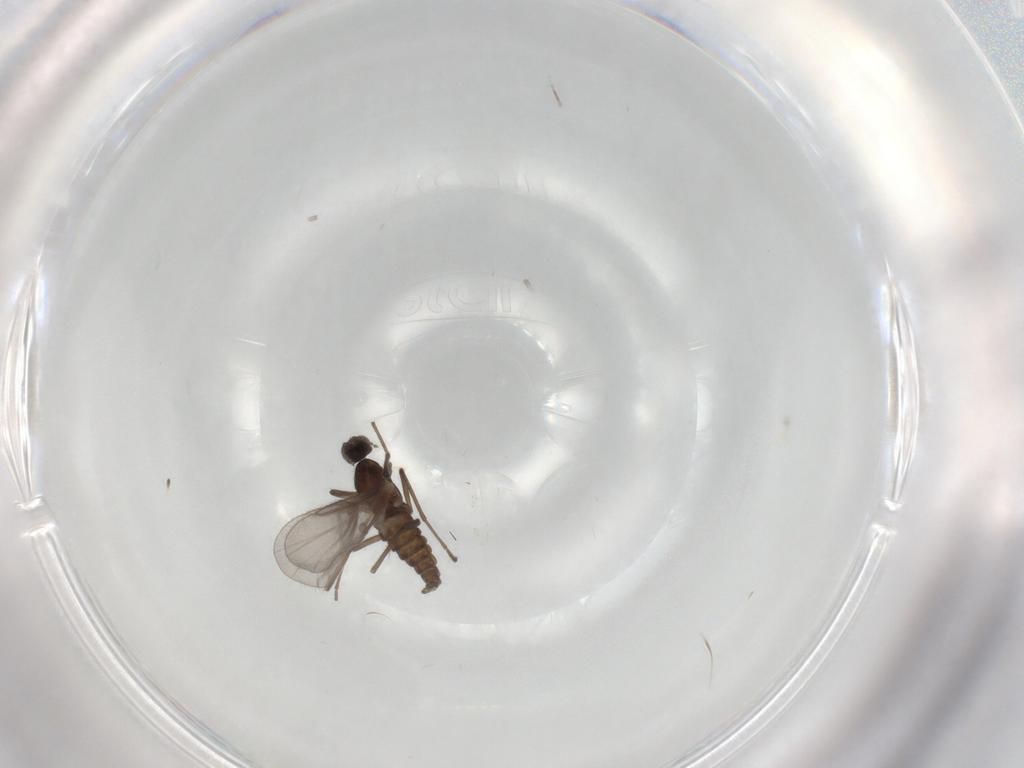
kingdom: Animalia
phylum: Arthropoda
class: Insecta
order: Diptera
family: Cecidomyiidae
